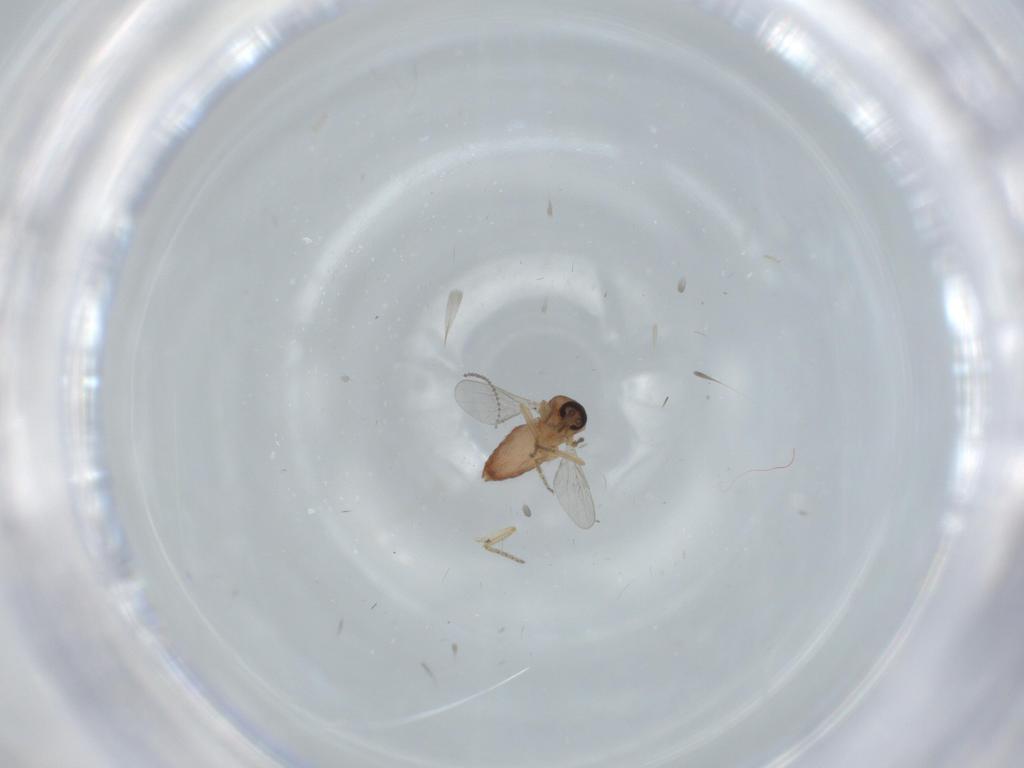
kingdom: Animalia
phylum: Arthropoda
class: Insecta
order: Diptera
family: Ceratopogonidae
